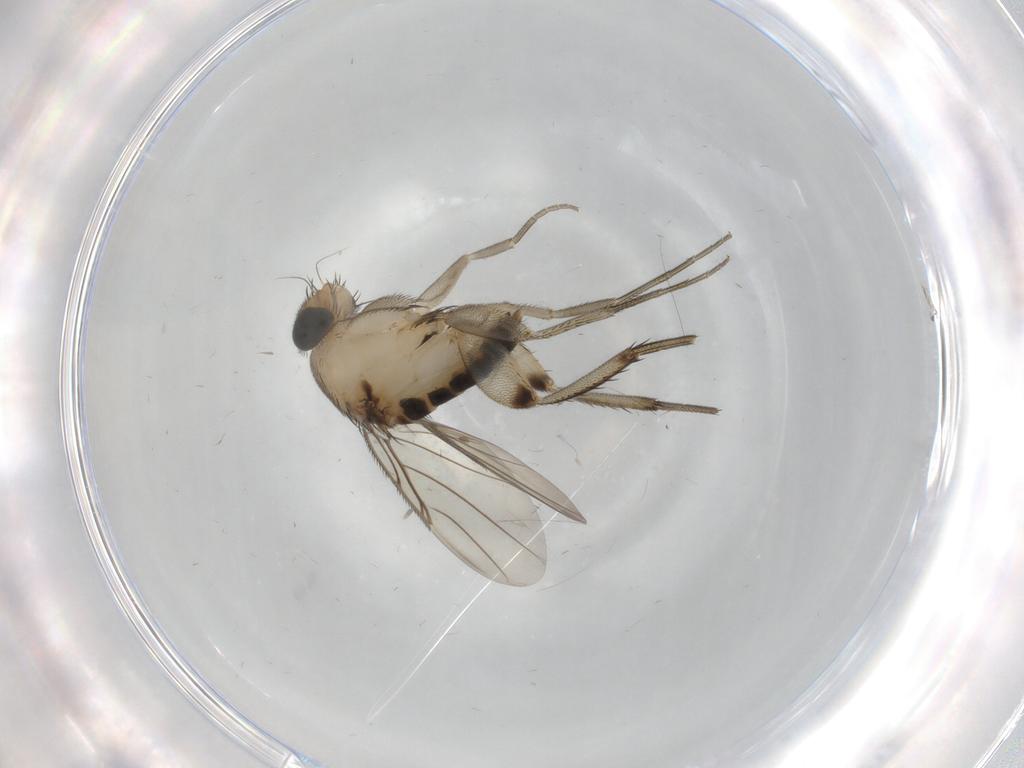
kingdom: Animalia
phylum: Arthropoda
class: Insecta
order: Diptera
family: Phoridae
